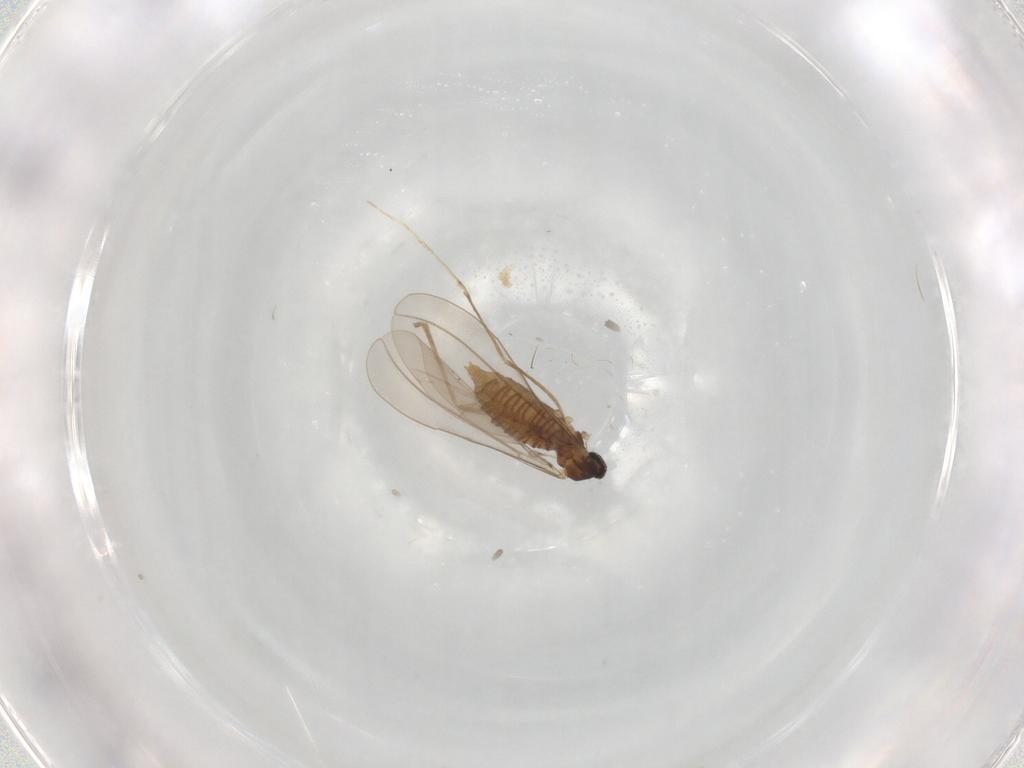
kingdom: Animalia
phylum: Arthropoda
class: Insecta
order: Diptera
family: Cecidomyiidae
